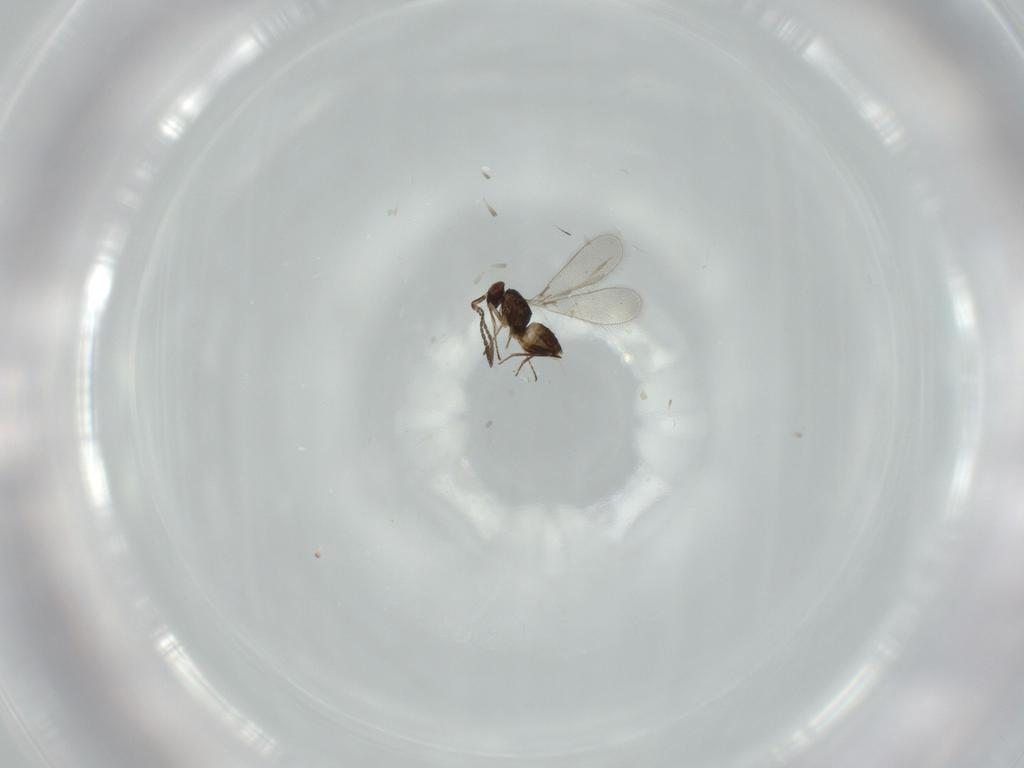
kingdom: Animalia
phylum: Arthropoda
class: Insecta
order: Hymenoptera
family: Mymaridae
